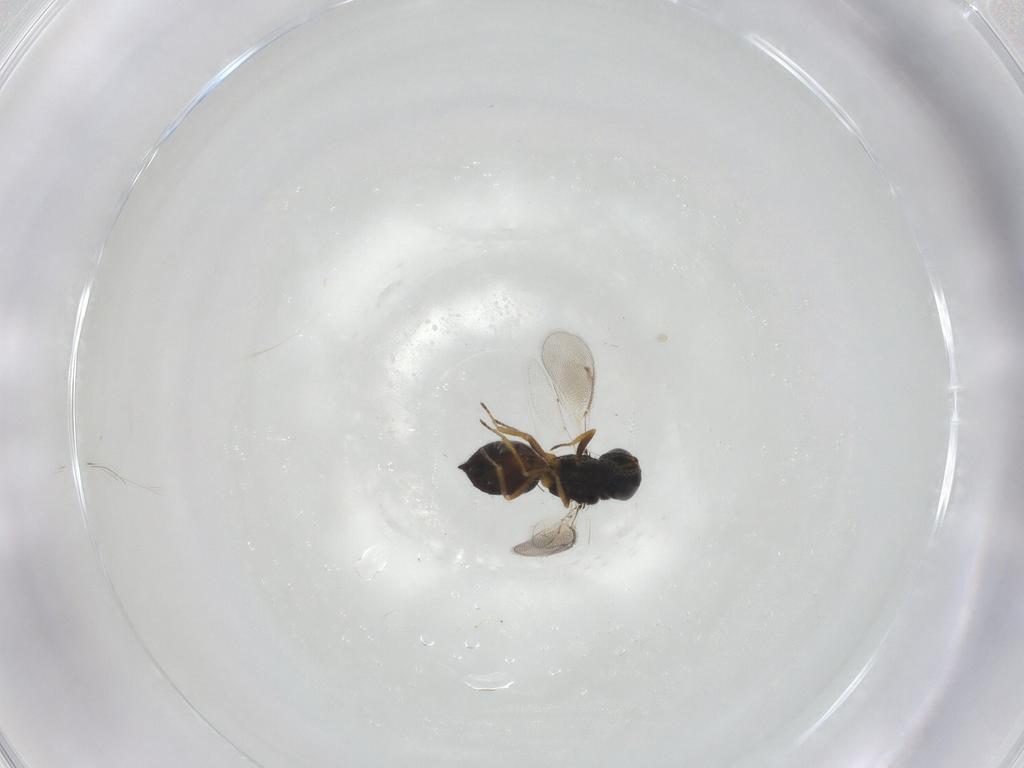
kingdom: Animalia
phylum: Arthropoda
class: Insecta
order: Hymenoptera
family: Eulophidae
